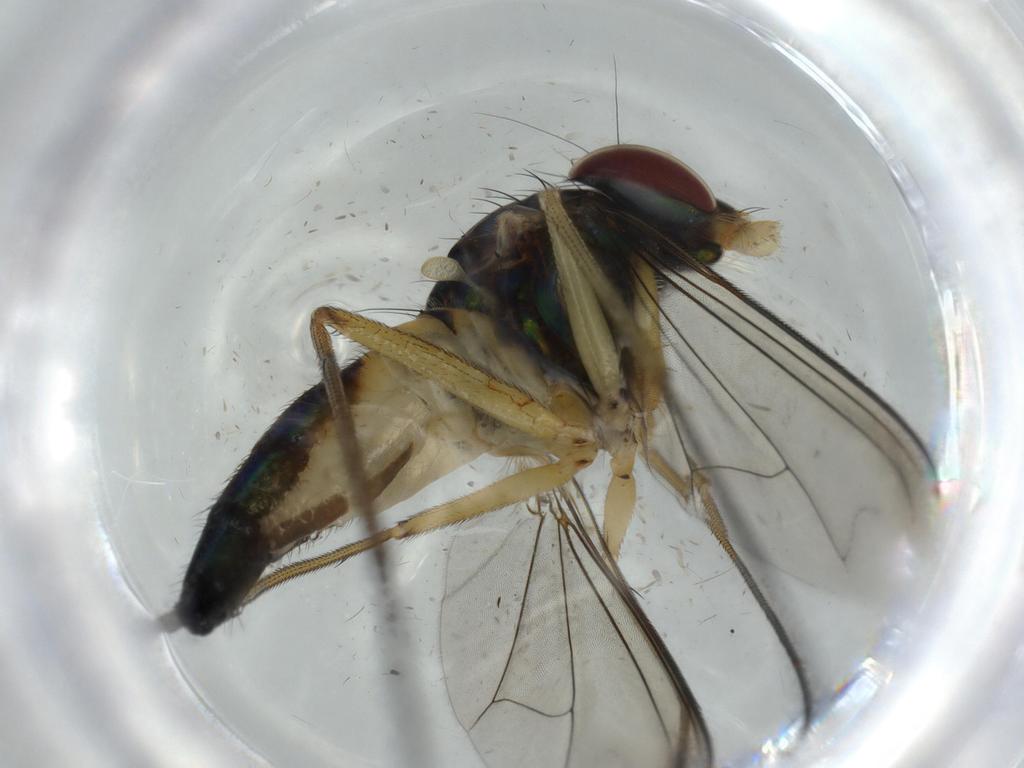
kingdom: Animalia
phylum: Arthropoda
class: Insecta
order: Diptera
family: Dolichopodidae
